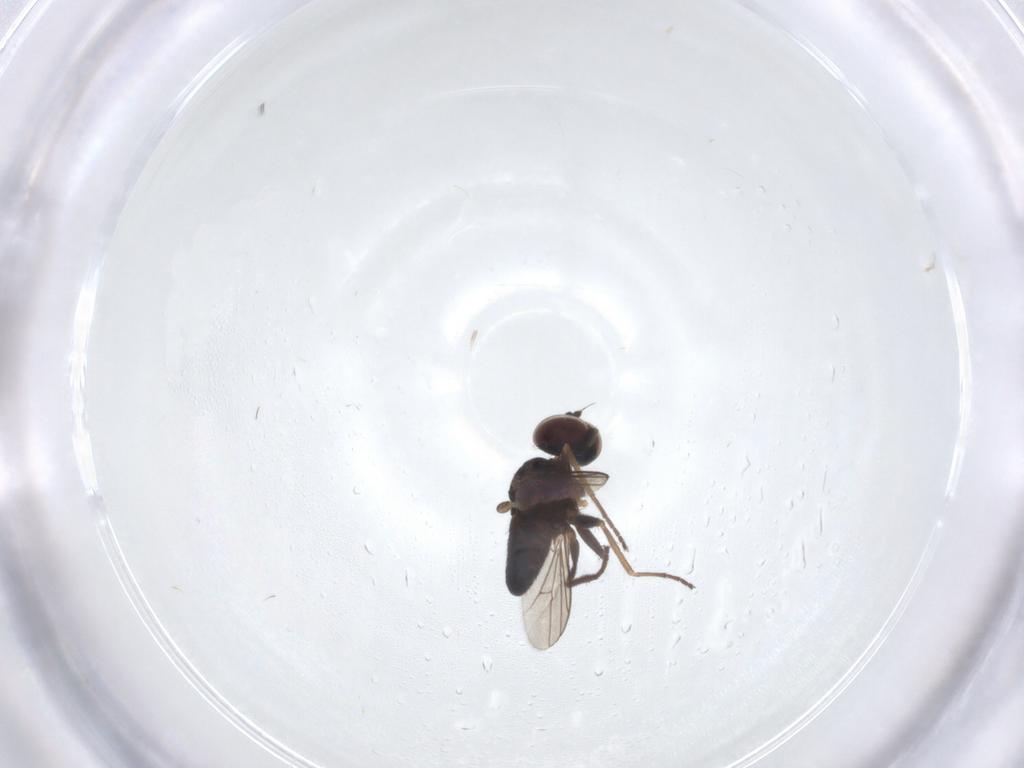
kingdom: Animalia
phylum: Arthropoda
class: Insecta
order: Diptera
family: Dolichopodidae
